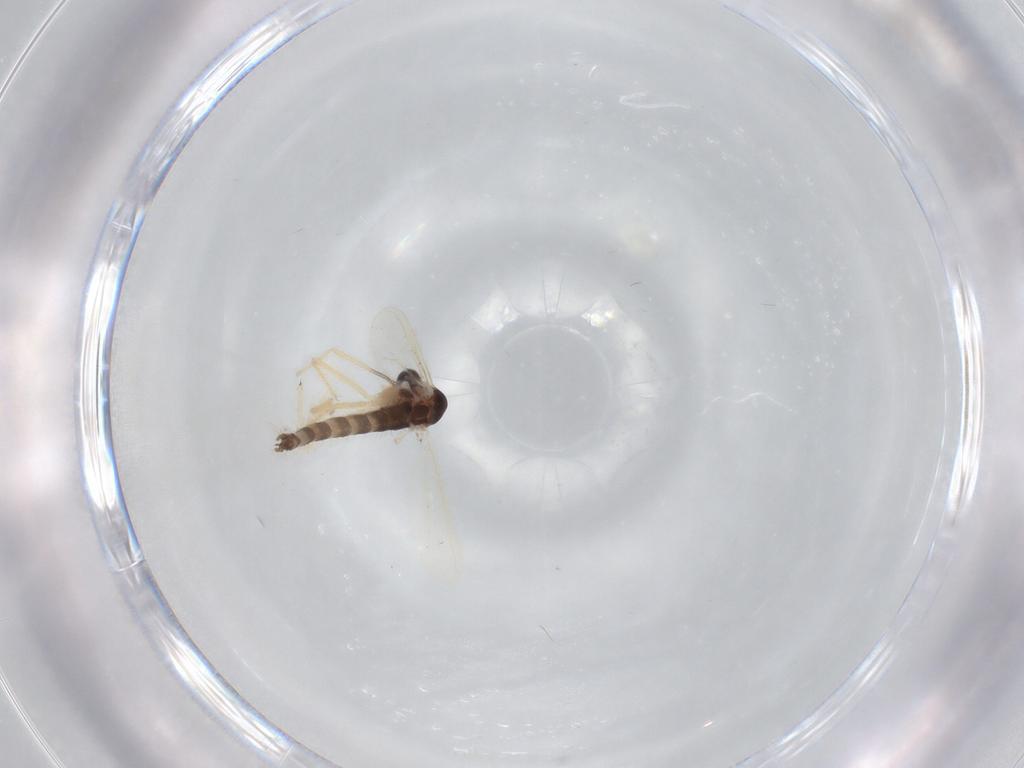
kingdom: Animalia
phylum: Arthropoda
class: Insecta
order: Diptera
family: Chironomidae
